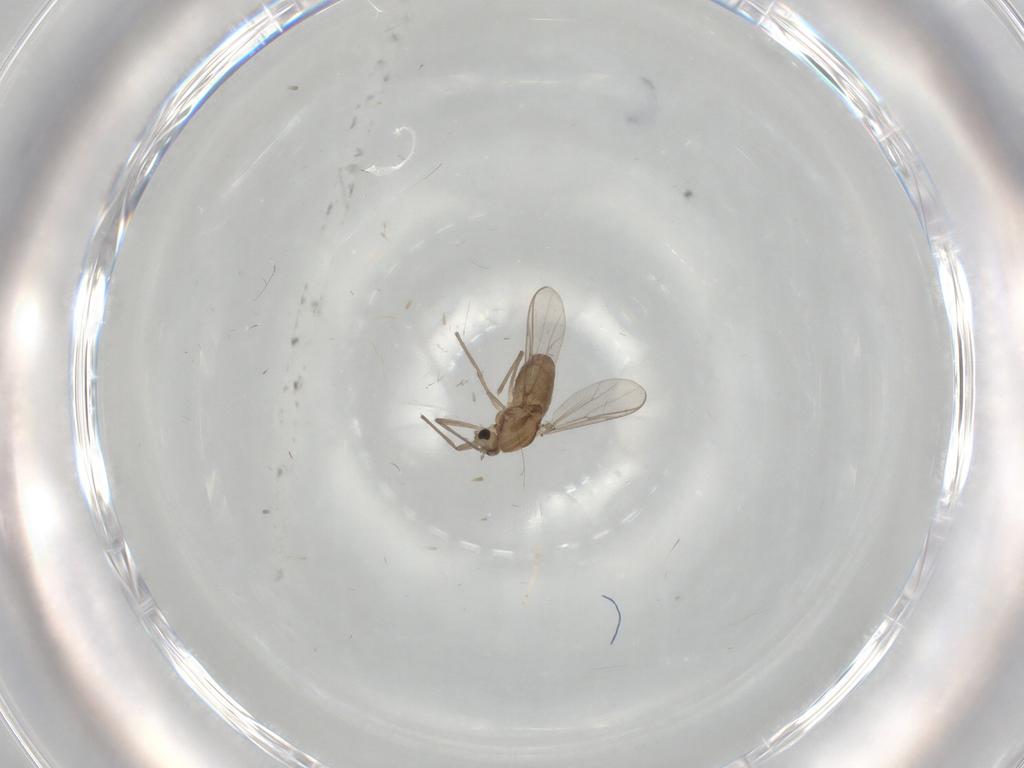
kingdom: Animalia
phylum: Arthropoda
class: Insecta
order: Diptera
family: Chironomidae
